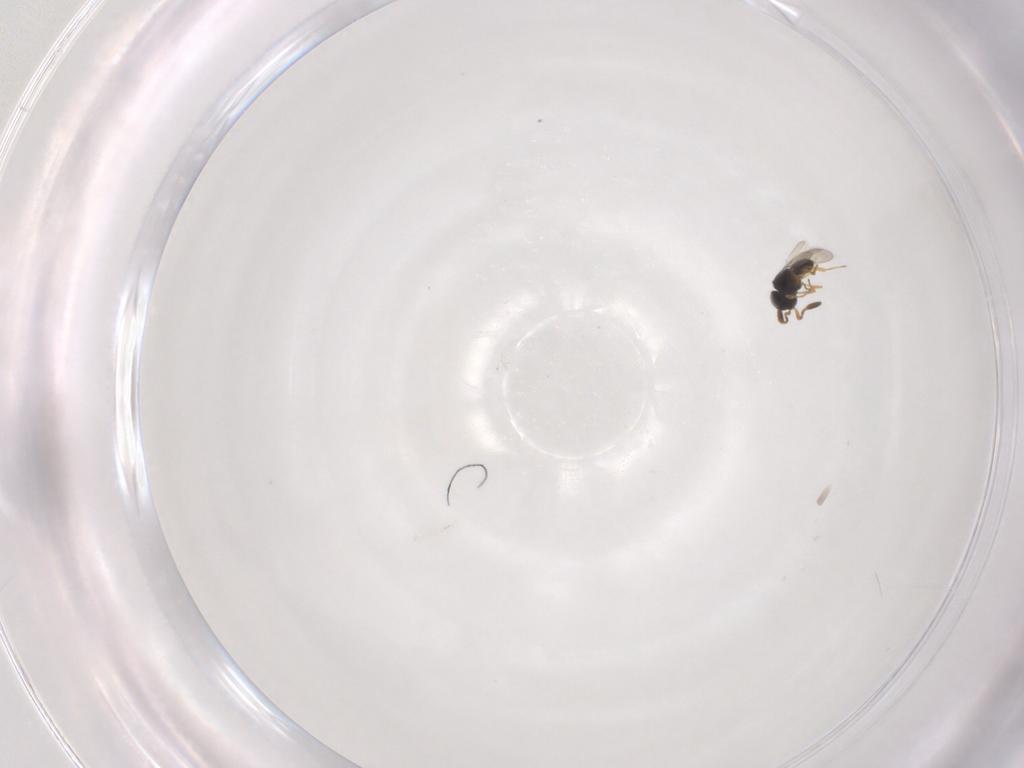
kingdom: Animalia
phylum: Arthropoda
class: Insecta
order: Hymenoptera
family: Scelionidae
